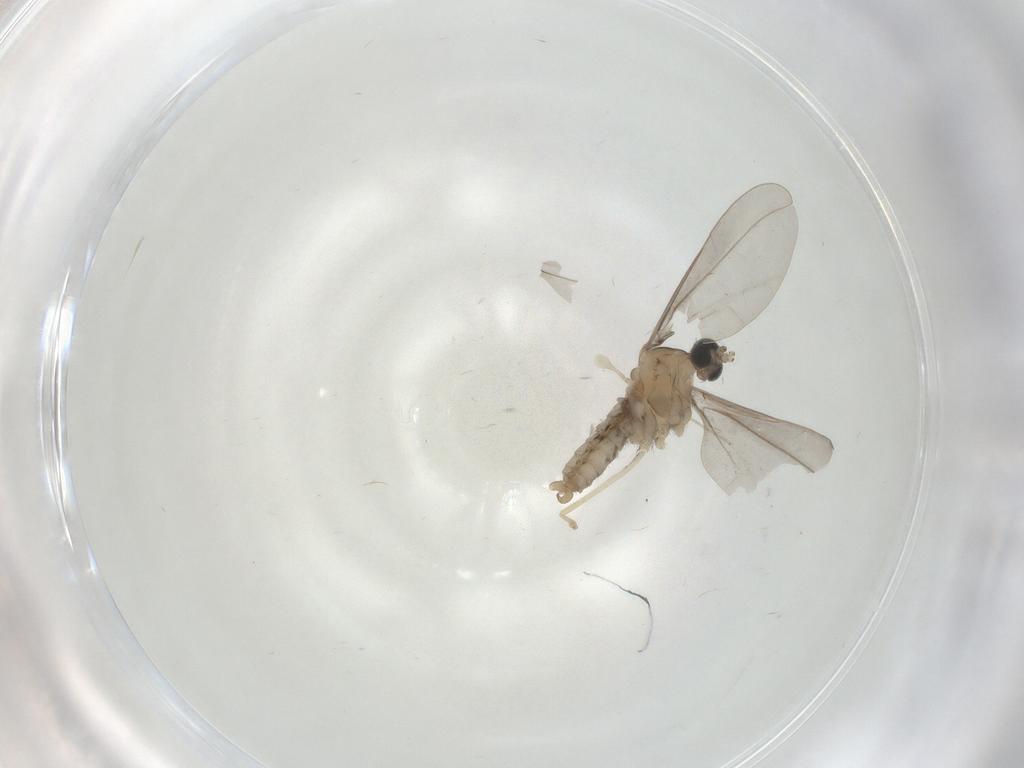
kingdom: Animalia
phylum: Arthropoda
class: Insecta
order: Diptera
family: Cecidomyiidae
